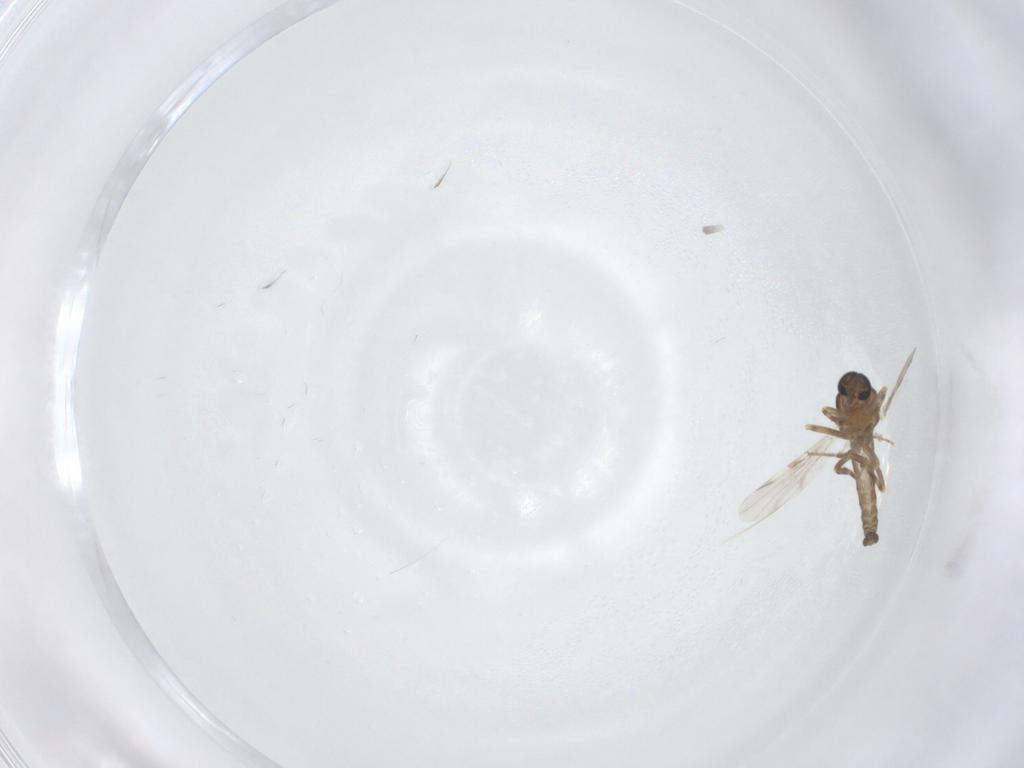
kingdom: Animalia
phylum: Arthropoda
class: Insecta
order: Diptera
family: Ceratopogonidae
